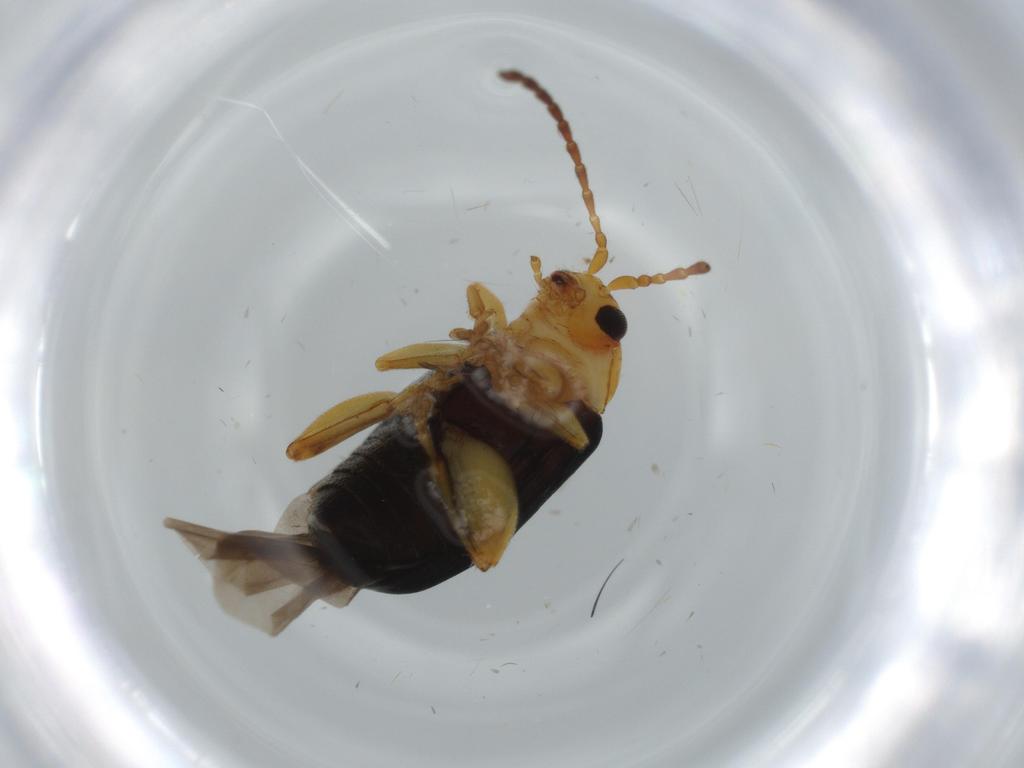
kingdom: Animalia
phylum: Arthropoda
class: Insecta
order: Coleoptera
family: Chrysomelidae
